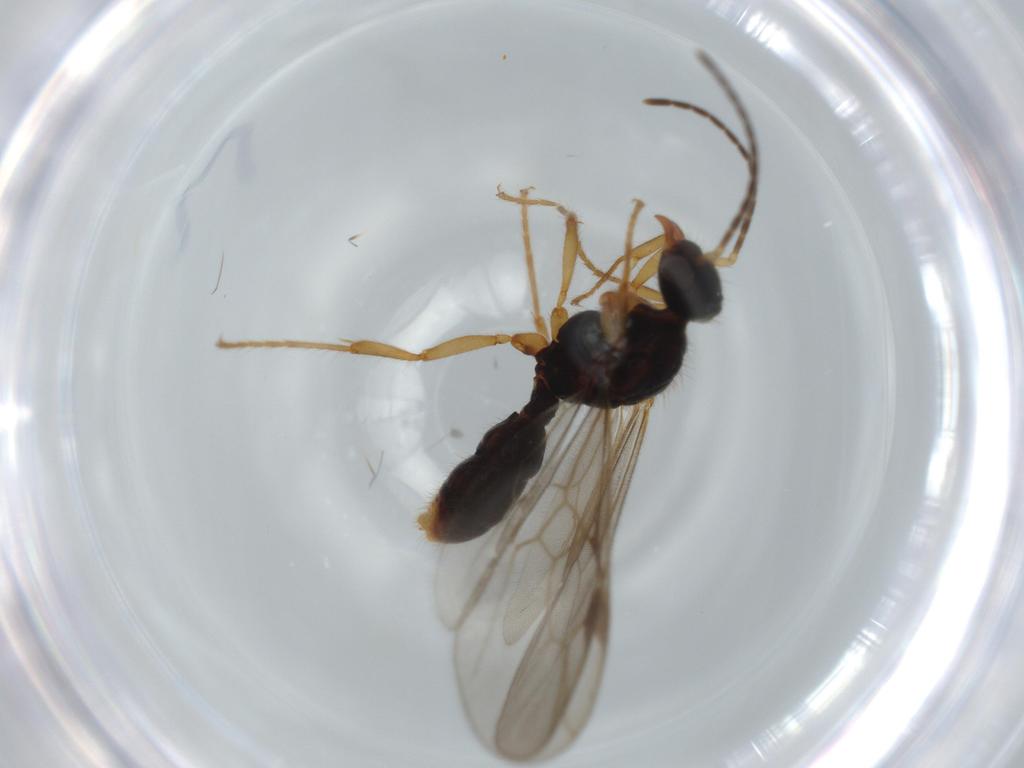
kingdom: Animalia
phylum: Arthropoda
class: Insecta
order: Hymenoptera
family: Formicidae
